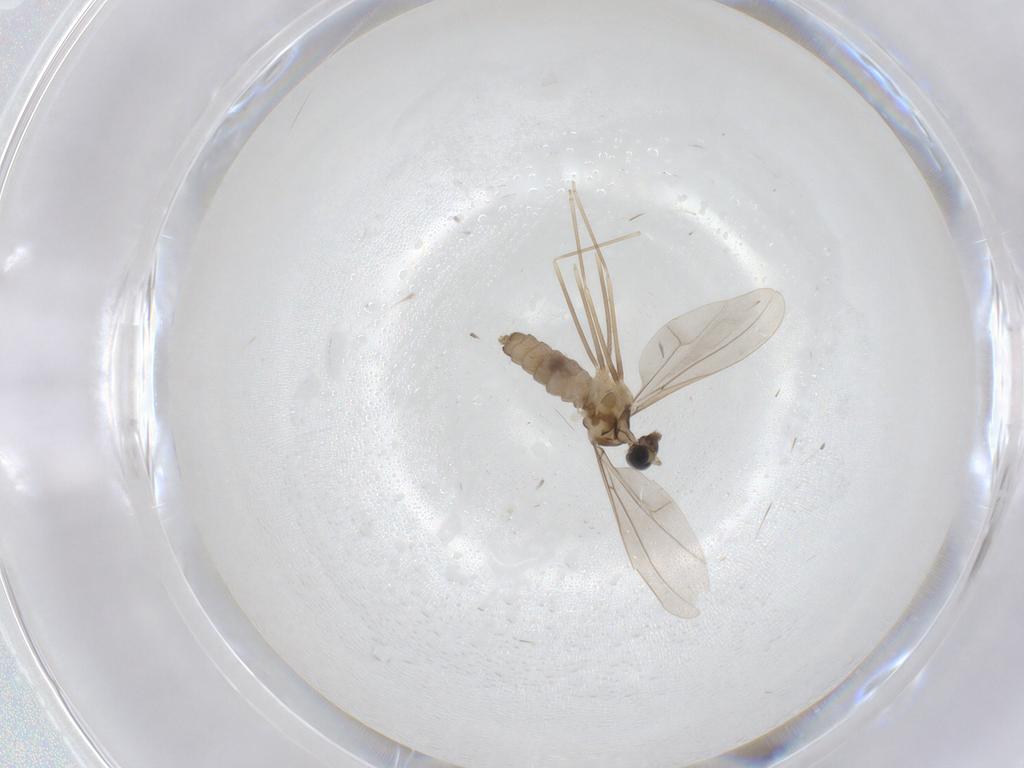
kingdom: Animalia
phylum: Arthropoda
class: Insecta
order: Diptera
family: Cecidomyiidae
